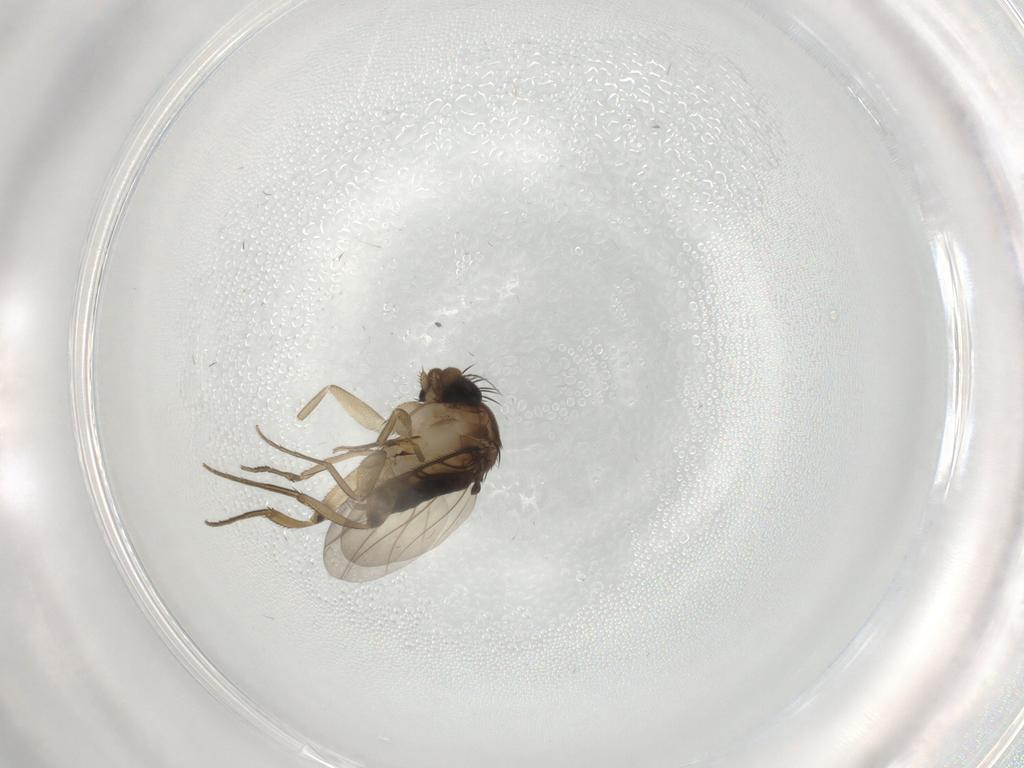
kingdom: Animalia
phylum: Arthropoda
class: Insecta
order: Diptera
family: Phoridae
